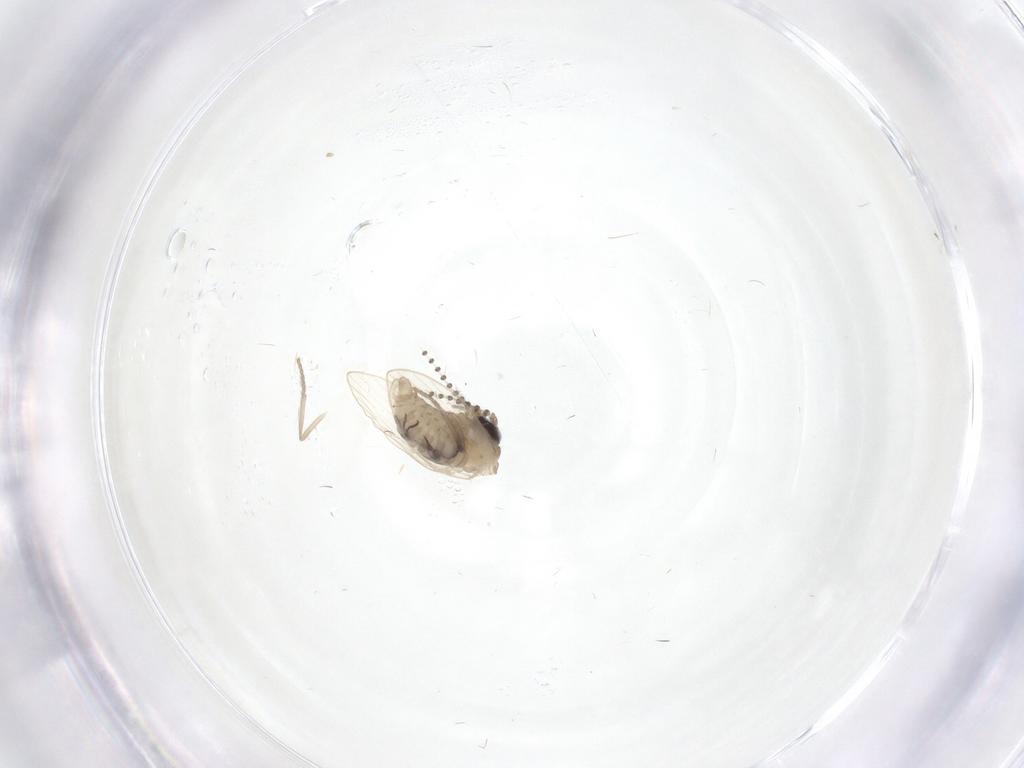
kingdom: Animalia
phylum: Arthropoda
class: Insecta
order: Diptera
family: Psychodidae
